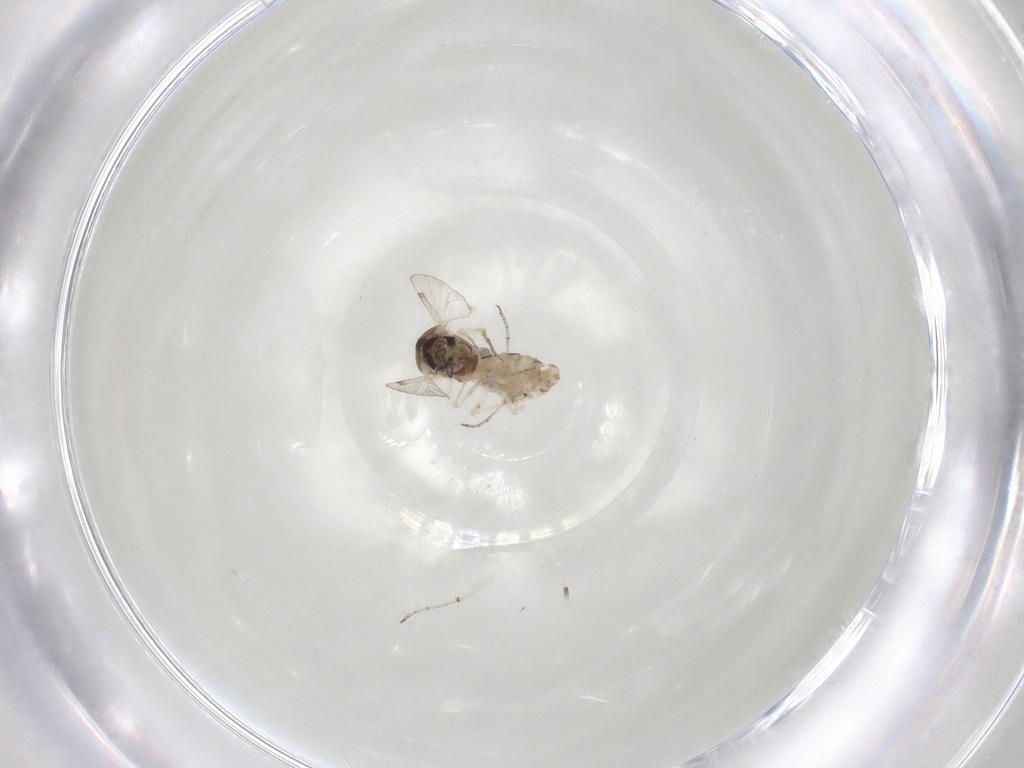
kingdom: Animalia
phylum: Arthropoda
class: Insecta
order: Diptera
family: Ceratopogonidae
